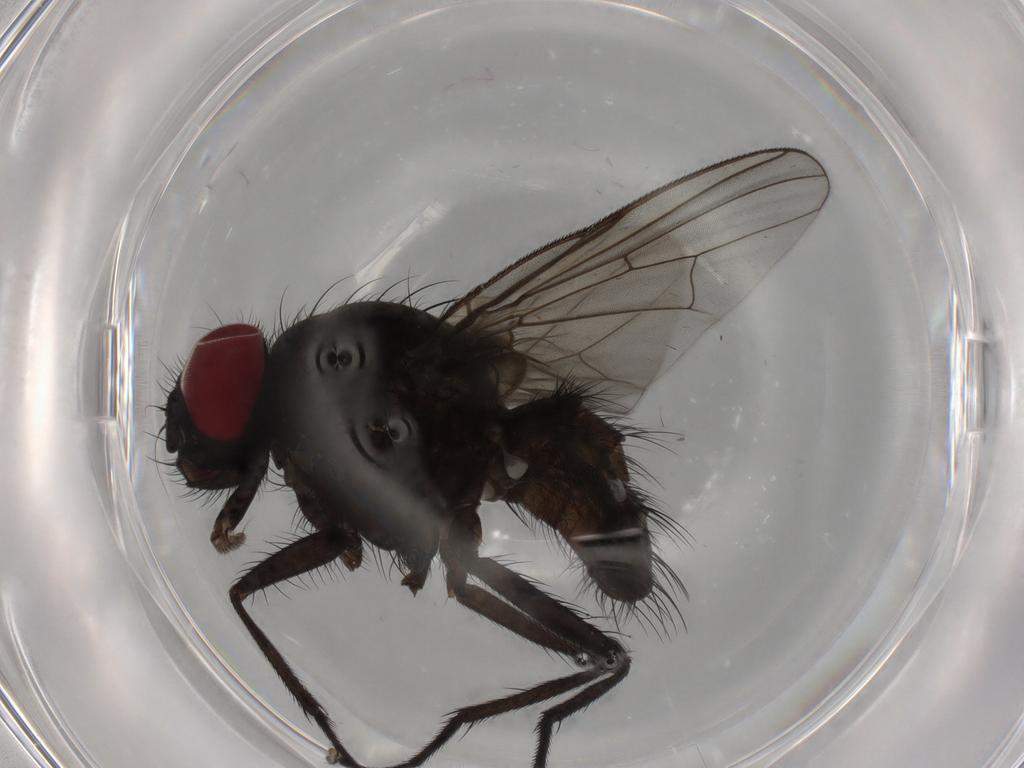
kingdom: Animalia
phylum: Arthropoda
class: Insecta
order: Diptera
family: Muscidae
